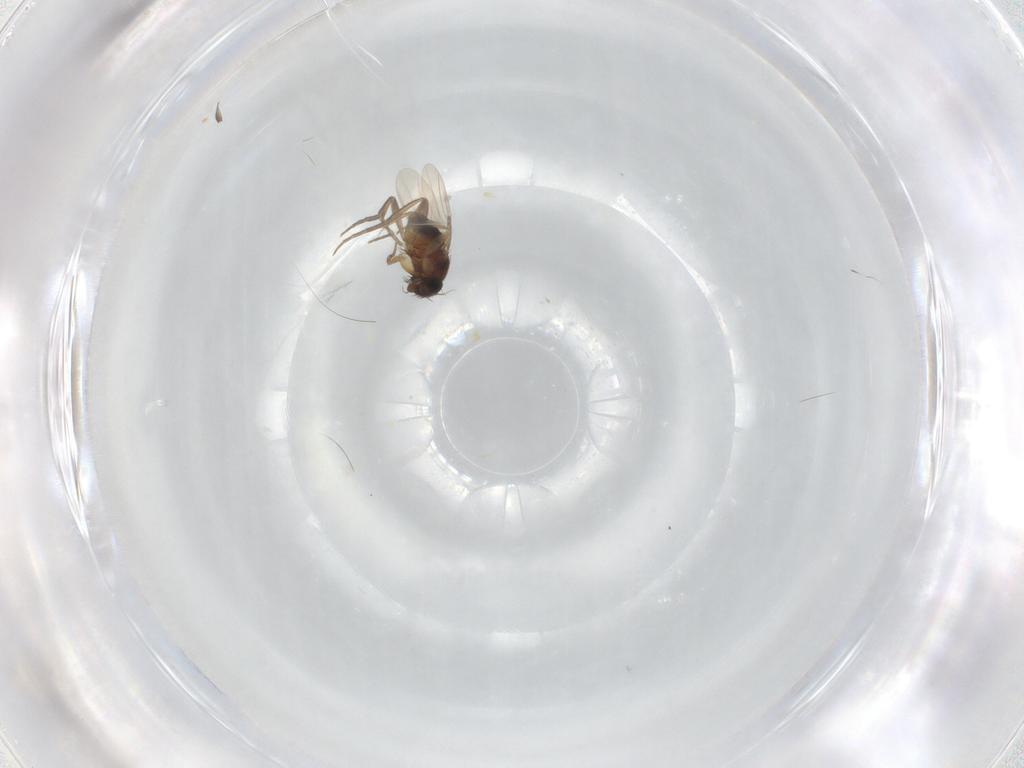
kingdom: Animalia
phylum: Arthropoda
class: Insecta
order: Diptera
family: Phoridae
